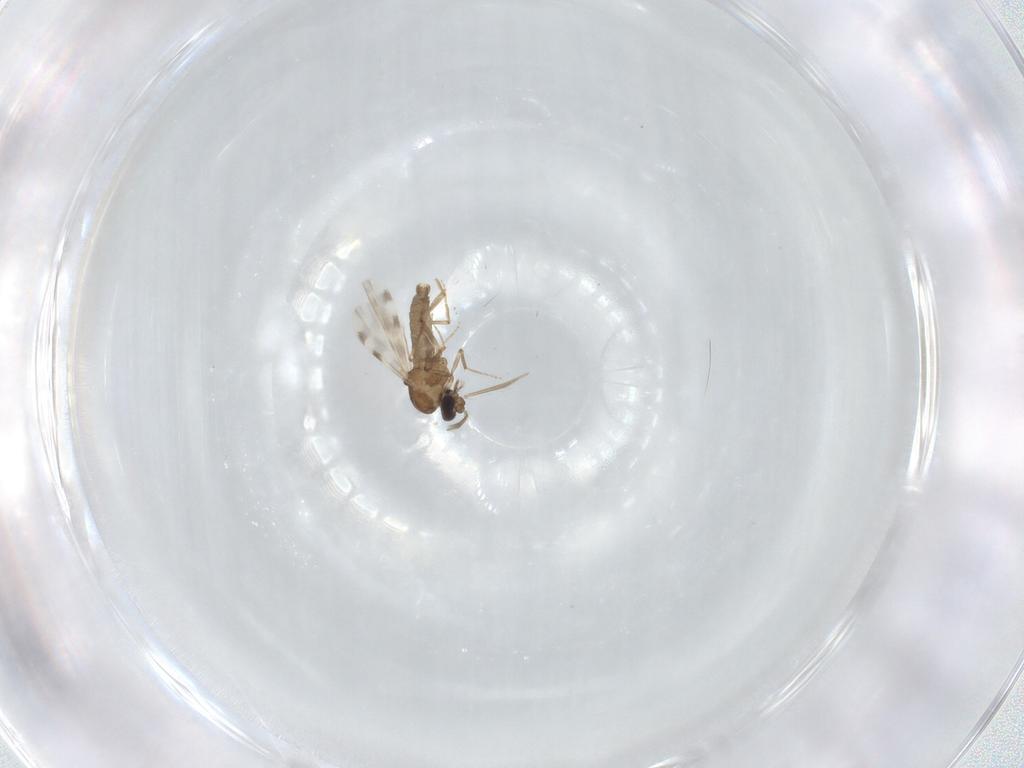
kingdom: Animalia
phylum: Arthropoda
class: Insecta
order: Diptera
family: Ceratopogonidae
